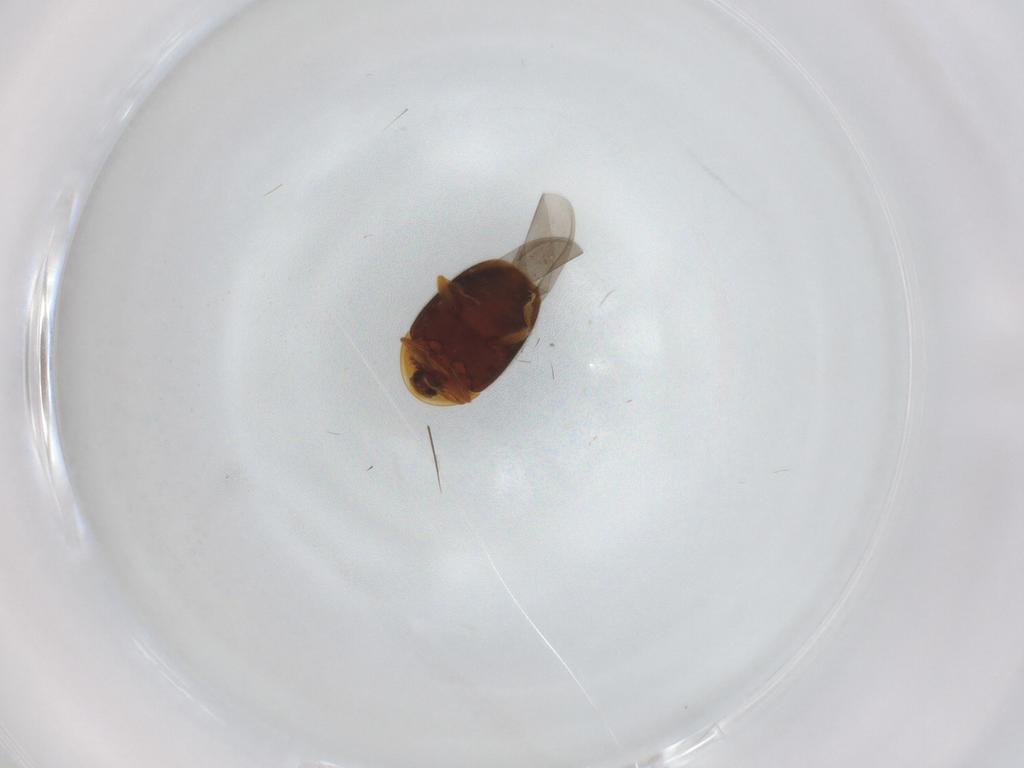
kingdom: Animalia
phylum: Arthropoda
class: Insecta
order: Coleoptera
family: Corylophidae
